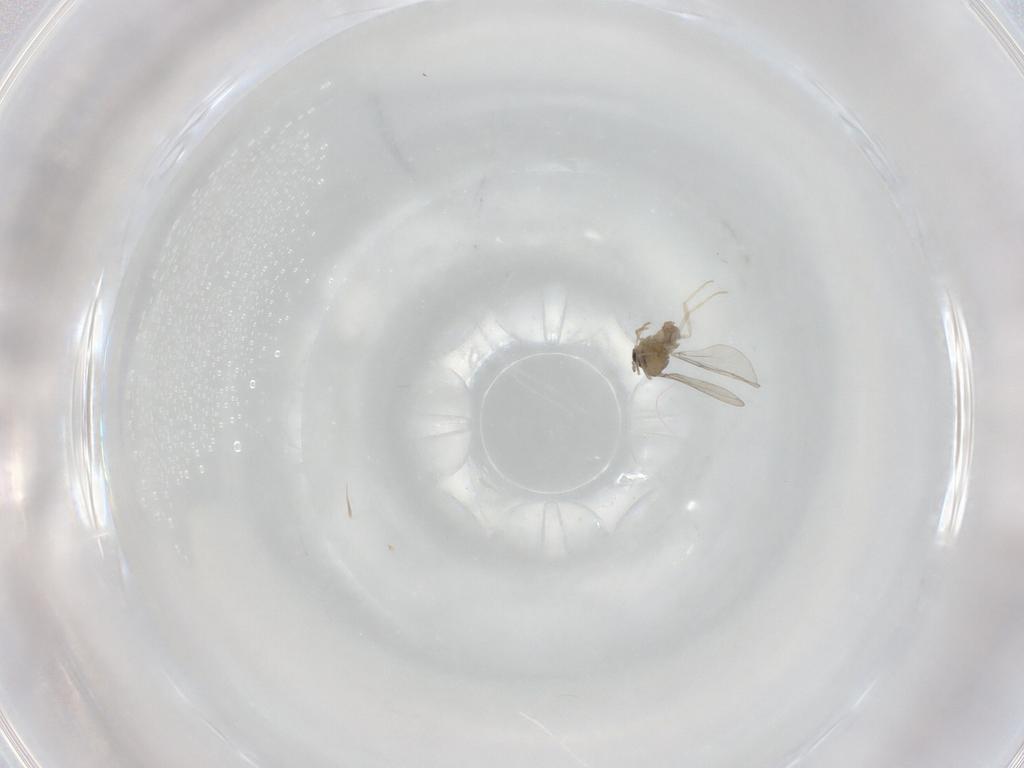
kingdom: Animalia
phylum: Arthropoda
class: Insecta
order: Diptera
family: Cecidomyiidae
